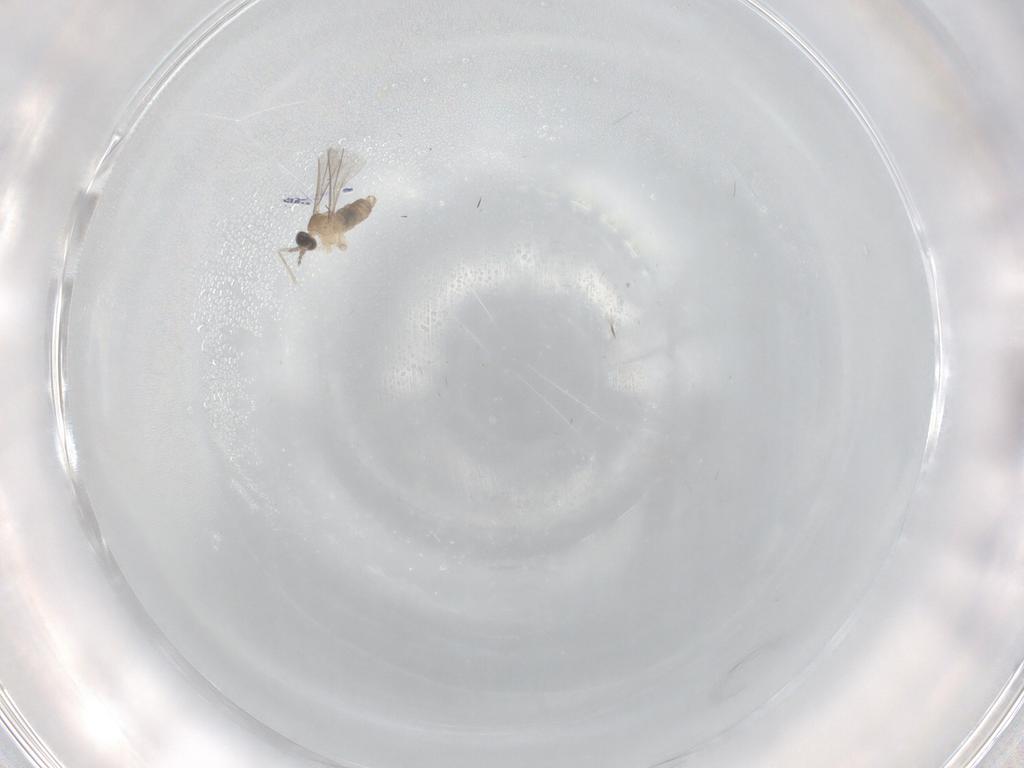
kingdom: Animalia
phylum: Arthropoda
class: Insecta
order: Diptera
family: Cecidomyiidae
